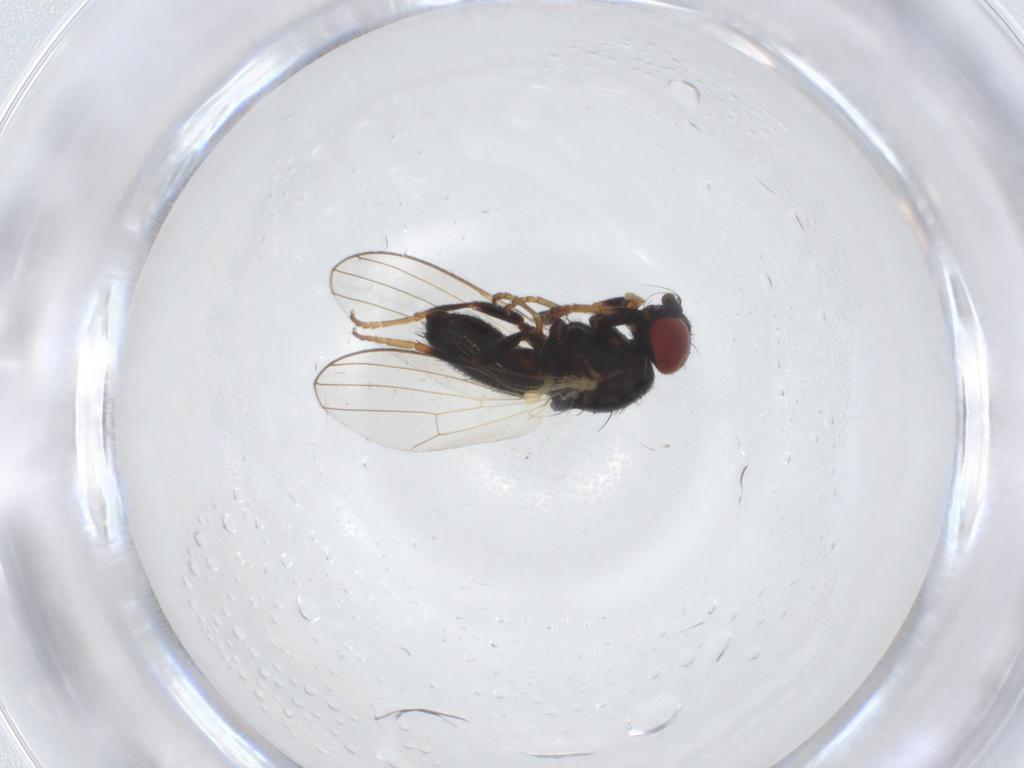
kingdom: Animalia
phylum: Arthropoda
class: Insecta
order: Diptera
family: Chamaemyiidae
